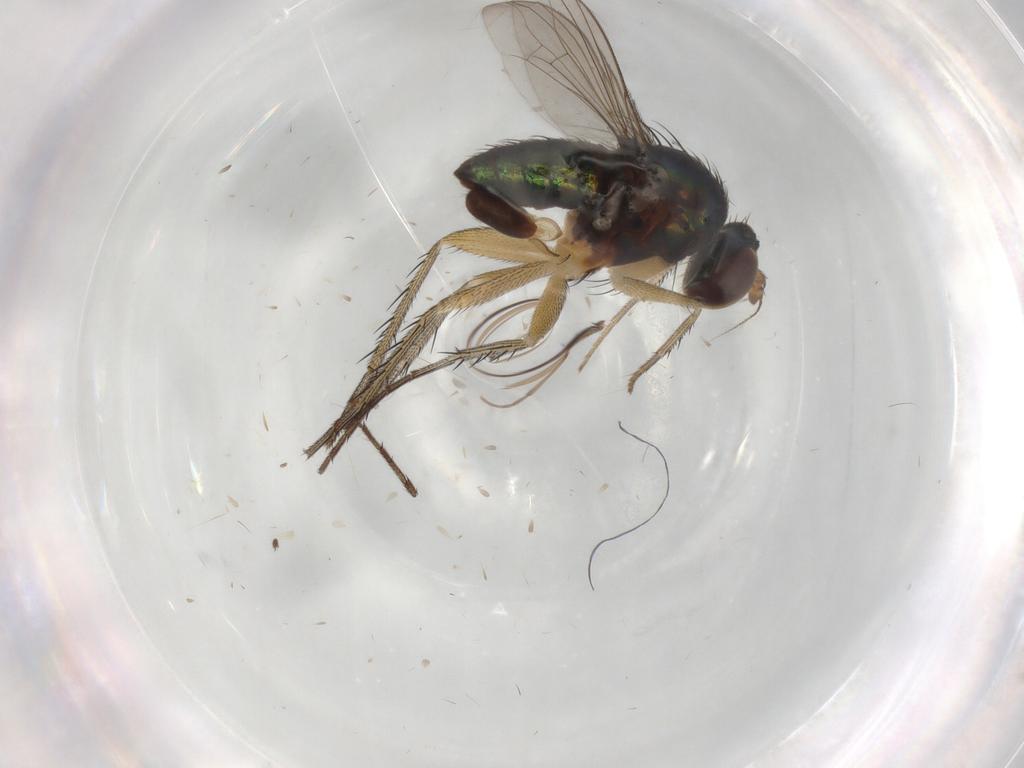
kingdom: Animalia
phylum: Arthropoda
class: Insecta
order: Diptera
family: Dolichopodidae
